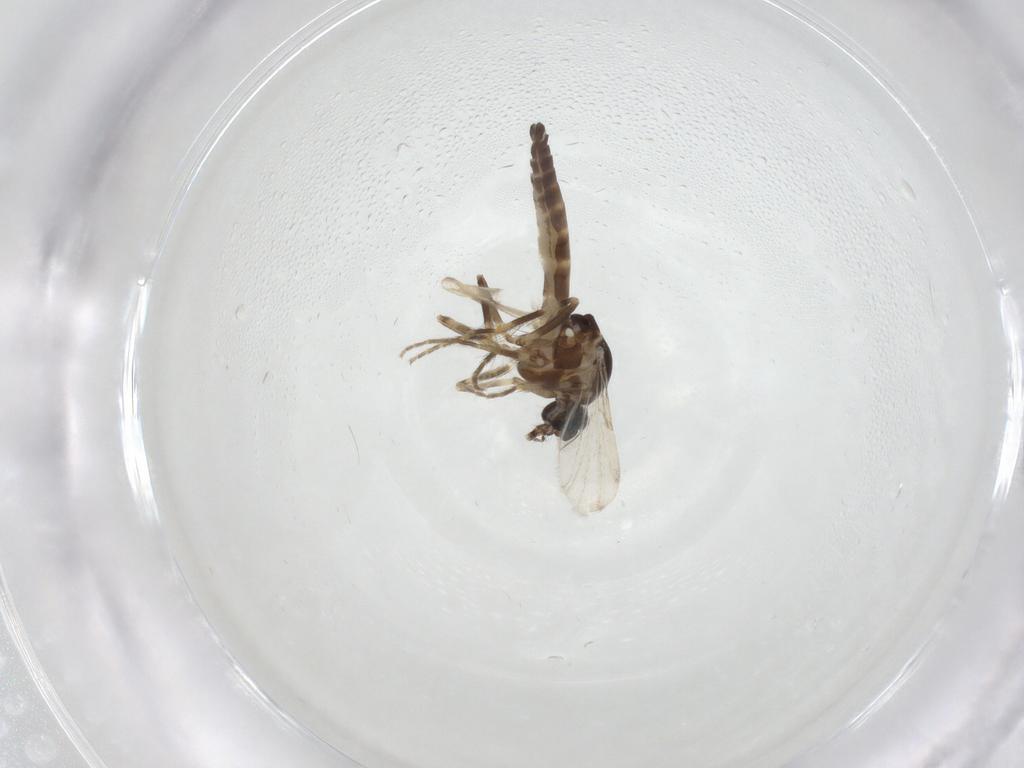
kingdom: Animalia
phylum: Arthropoda
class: Insecta
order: Diptera
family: Ceratopogonidae
